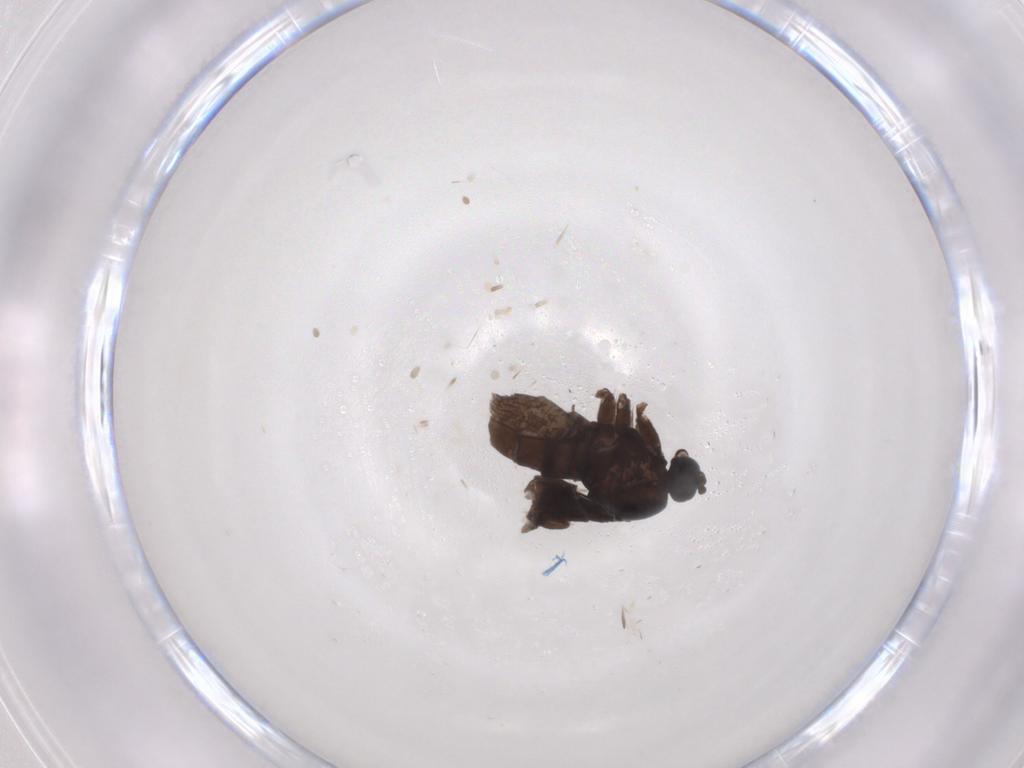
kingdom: Animalia
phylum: Arthropoda
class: Insecta
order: Diptera
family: Sciaridae
